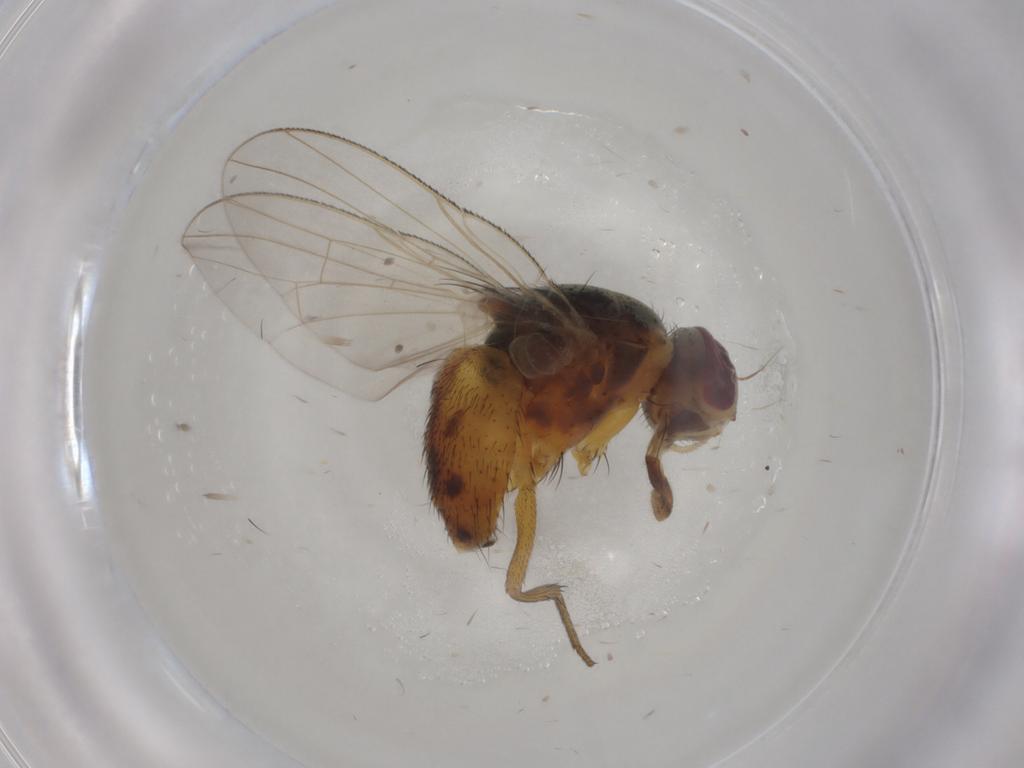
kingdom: Animalia
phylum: Arthropoda
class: Insecta
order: Diptera
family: Muscidae
